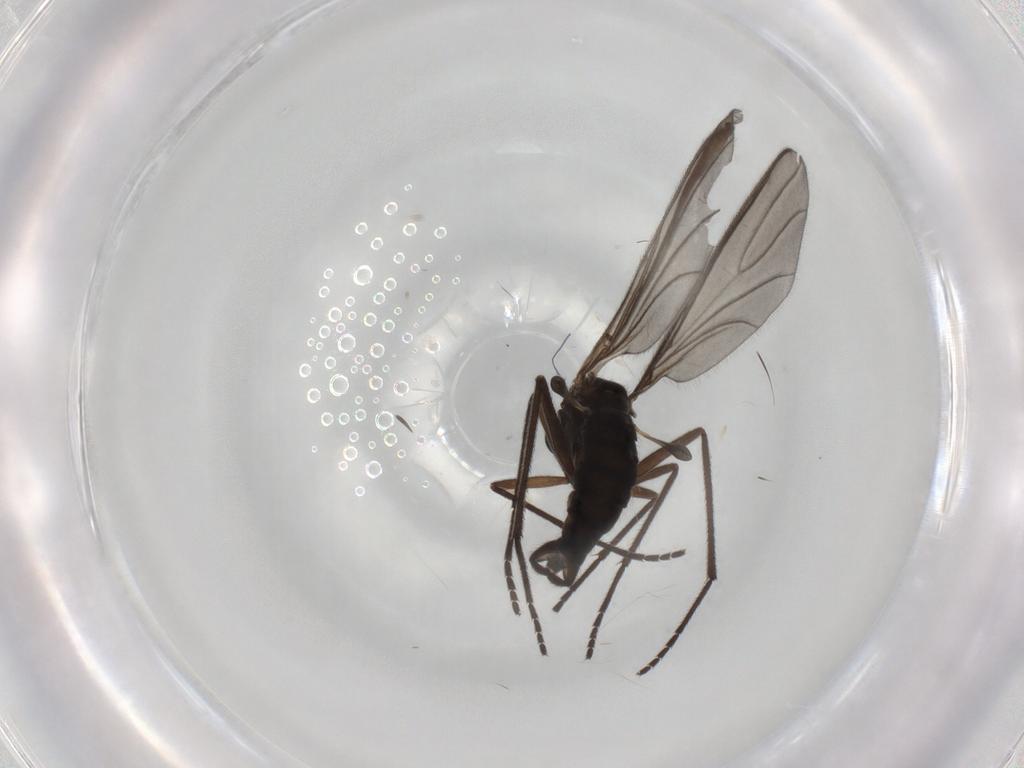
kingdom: Animalia
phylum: Arthropoda
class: Insecta
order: Diptera
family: Sciaridae
